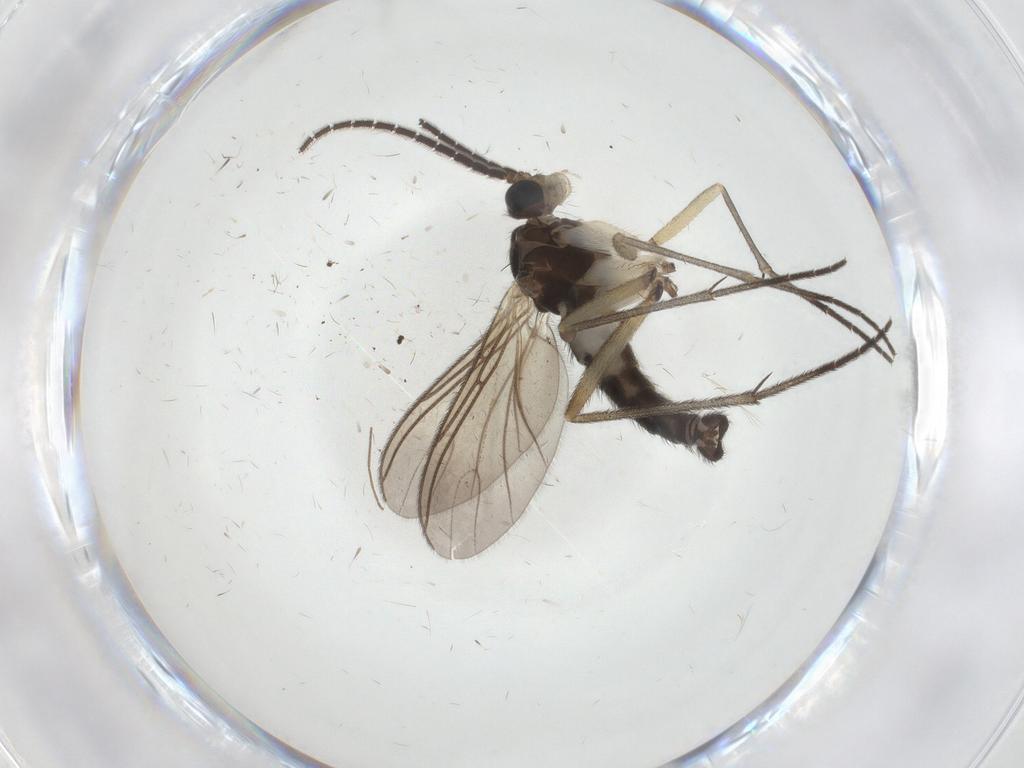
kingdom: Animalia
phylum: Arthropoda
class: Insecta
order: Diptera
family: Sciaridae
